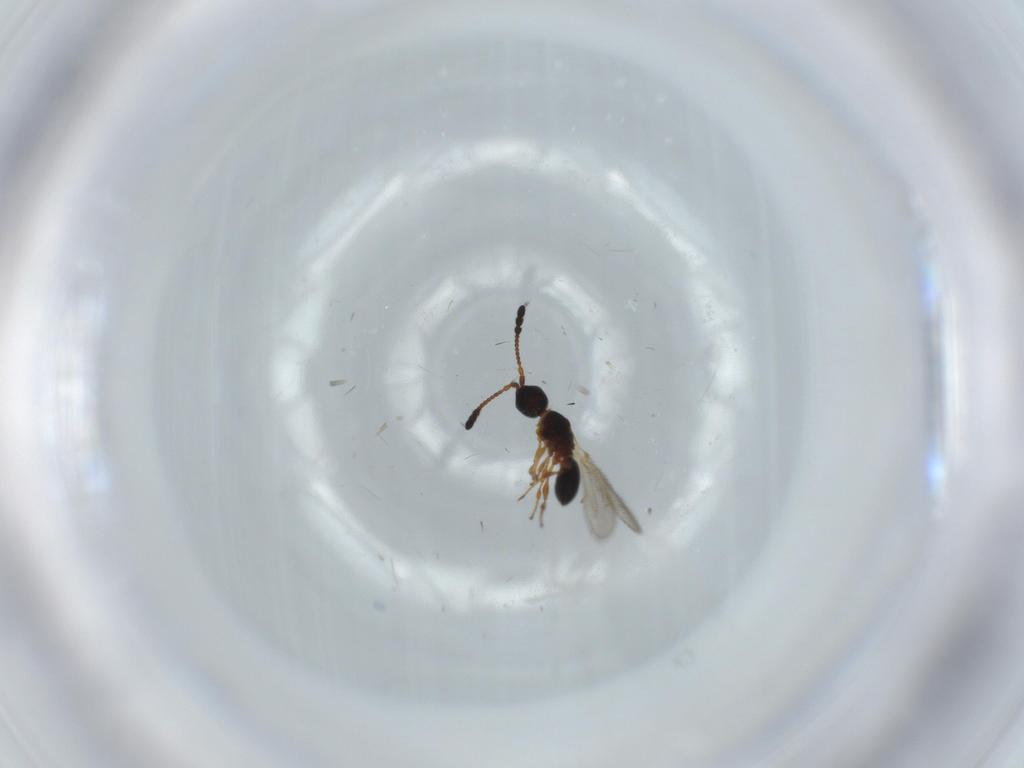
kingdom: Animalia
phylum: Arthropoda
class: Insecta
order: Hymenoptera
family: Diapriidae
